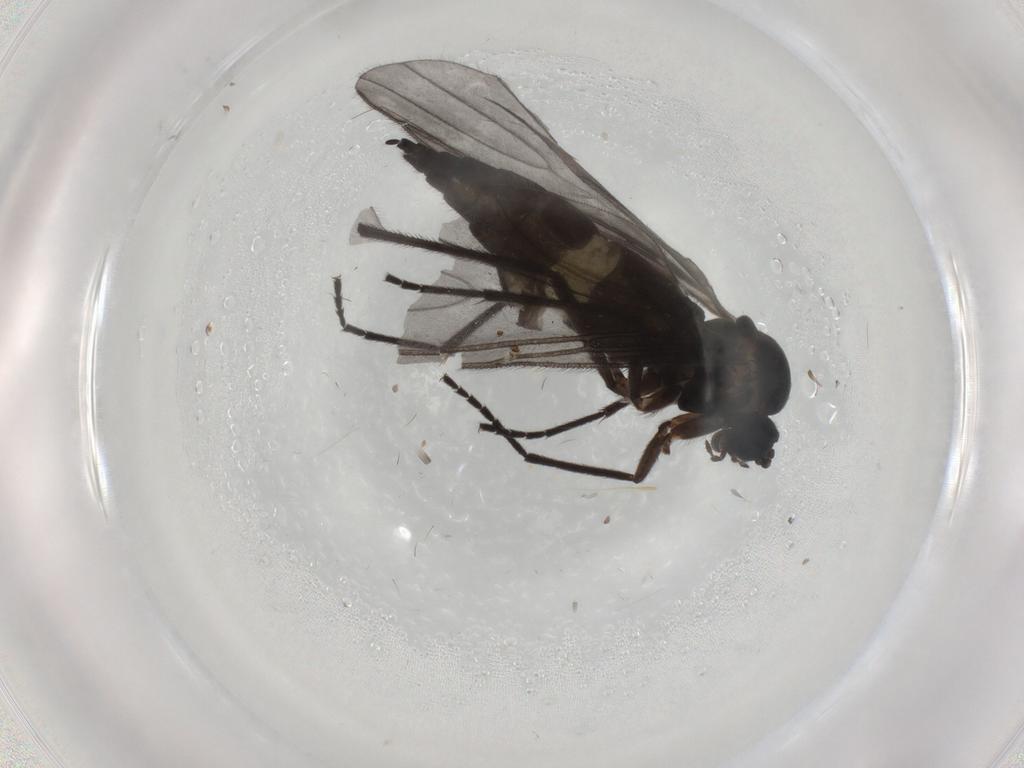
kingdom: Animalia
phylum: Arthropoda
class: Insecta
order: Diptera
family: Sciaridae
